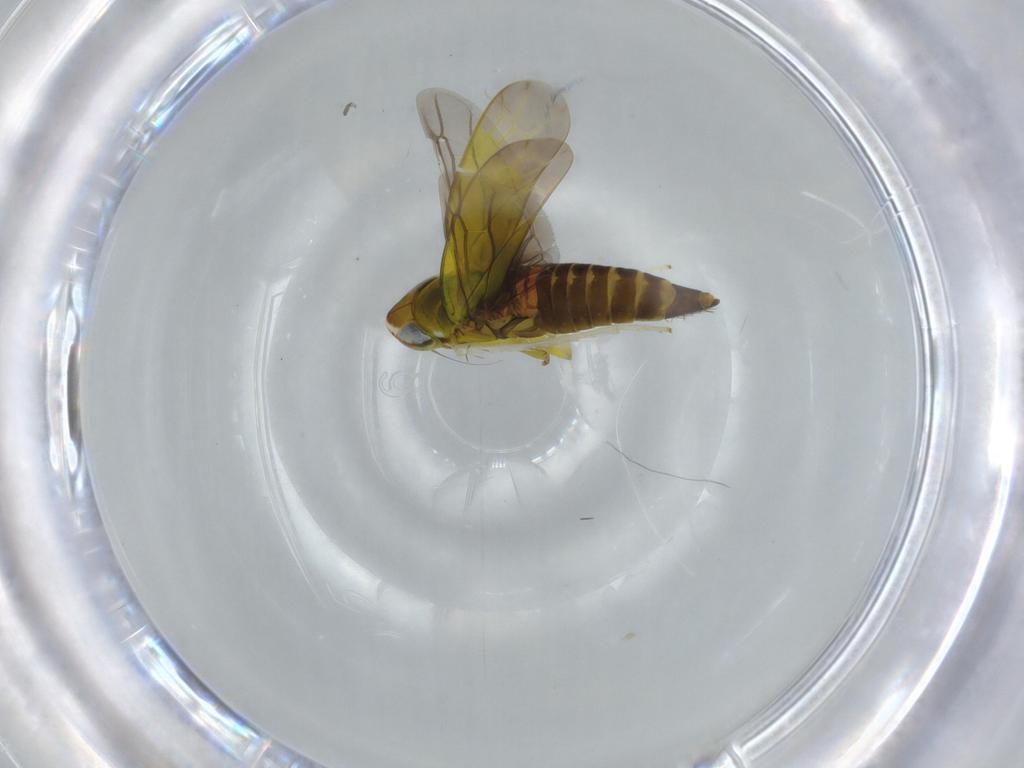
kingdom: Animalia
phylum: Arthropoda
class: Insecta
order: Hemiptera
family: Cicadellidae
